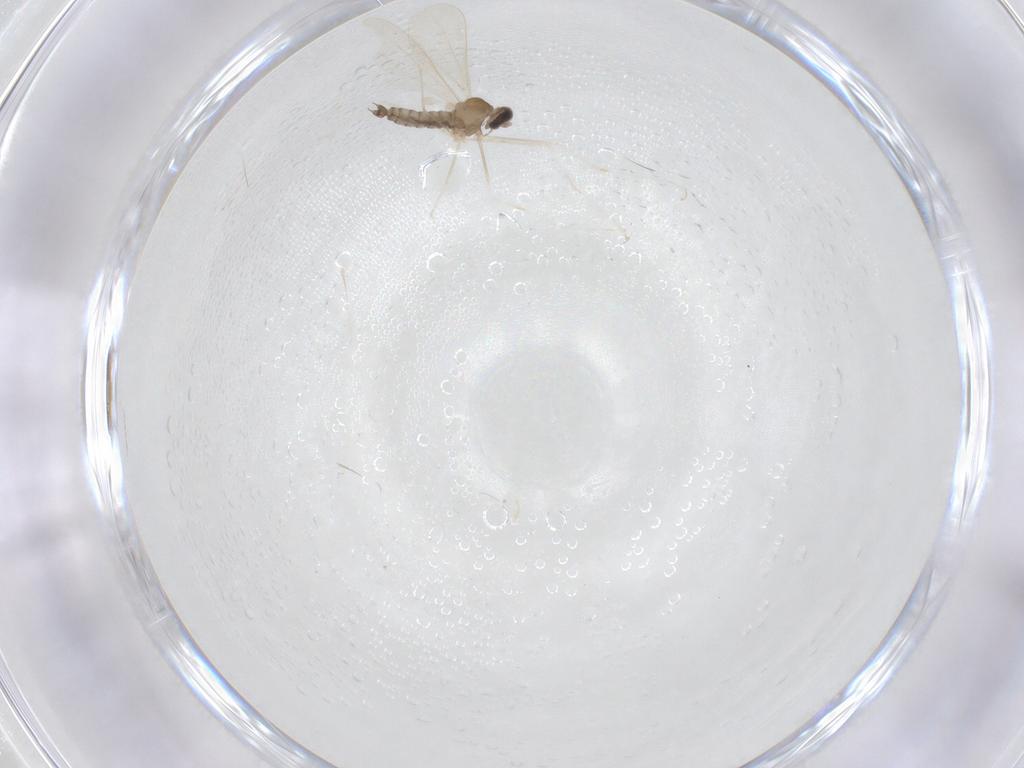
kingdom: Animalia
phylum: Arthropoda
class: Insecta
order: Diptera
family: Cecidomyiidae
